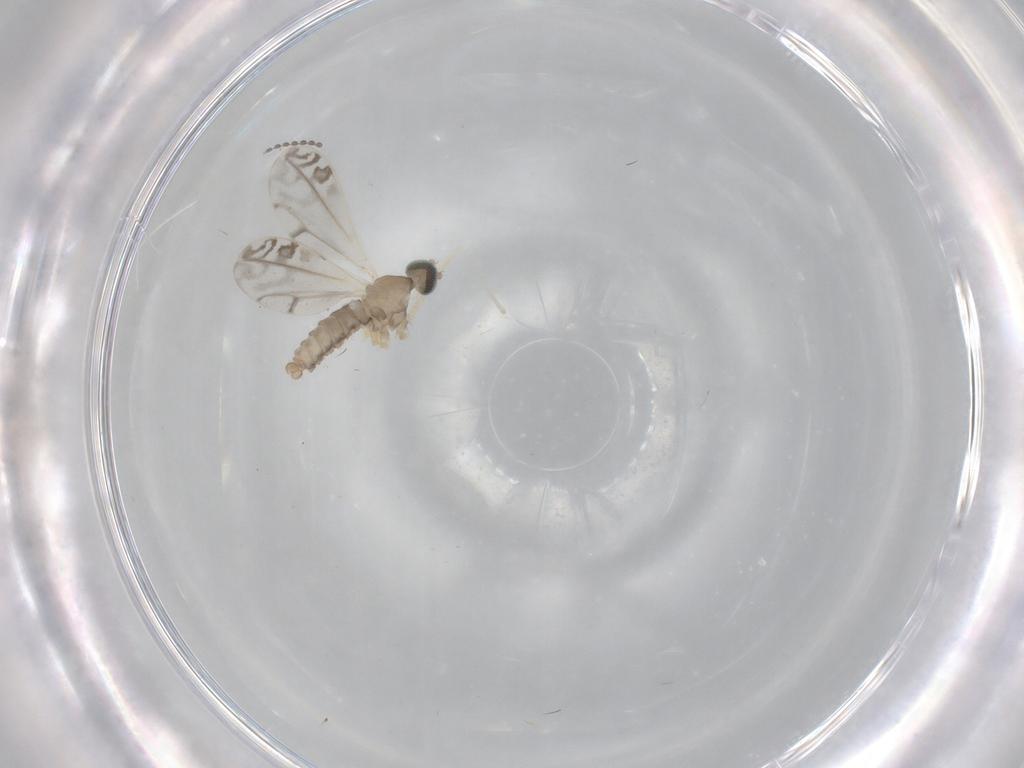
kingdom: Animalia
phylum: Arthropoda
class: Insecta
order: Diptera
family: Cecidomyiidae
